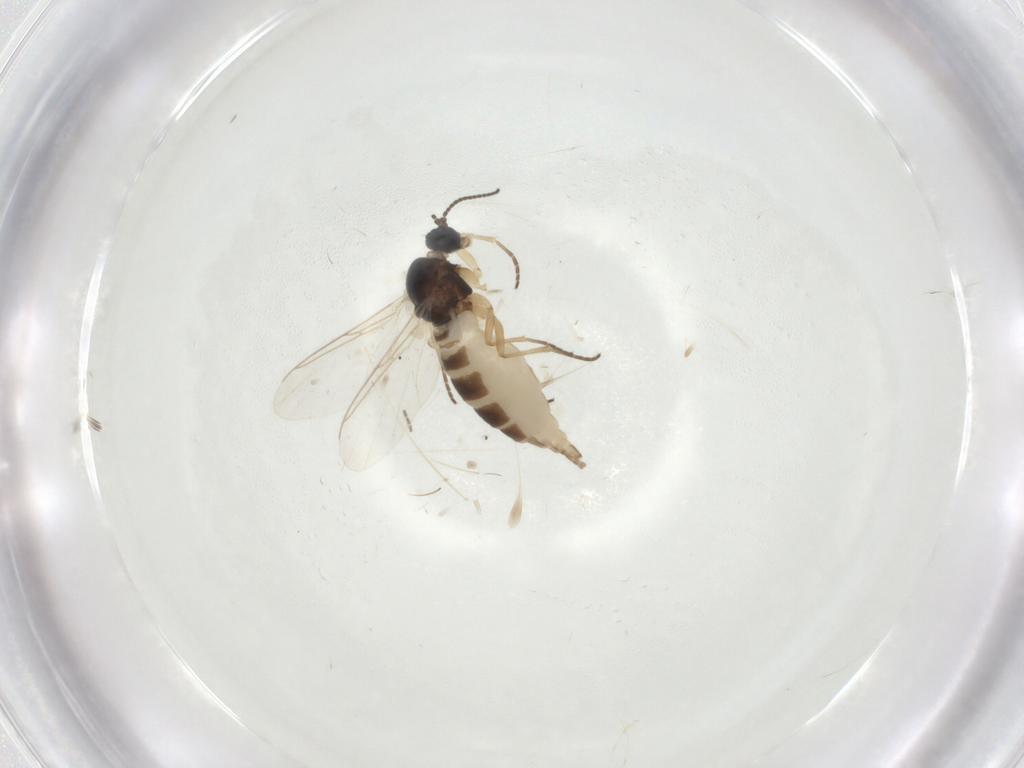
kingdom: Animalia
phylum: Arthropoda
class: Insecta
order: Diptera
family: Sciaridae
